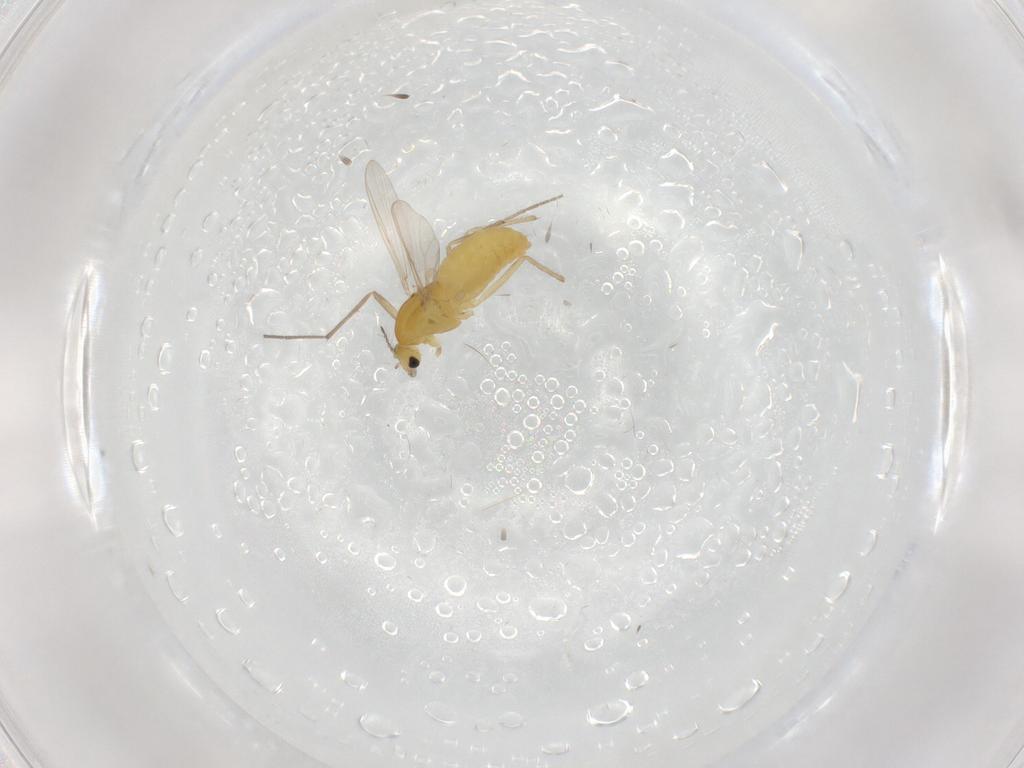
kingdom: Animalia
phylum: Arthropoda
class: Insecta
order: Diptera
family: Chironomidae
